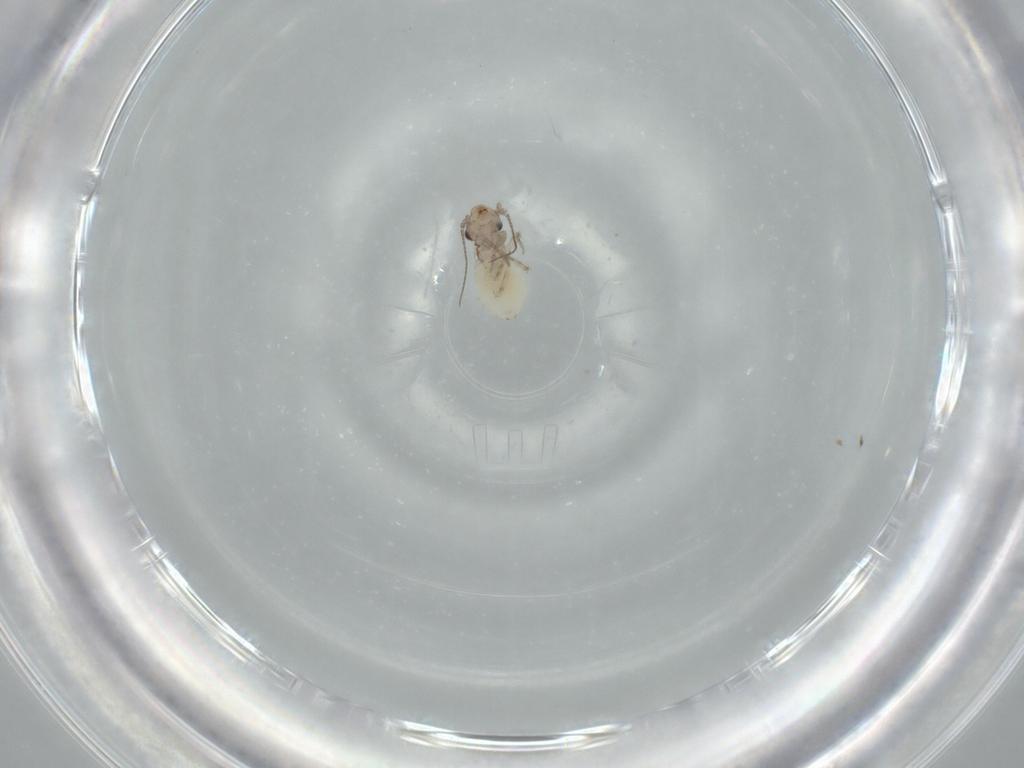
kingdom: Animalia
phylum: Arthropoda
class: Insecta
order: Psocodea
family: Lepidopsocidae
